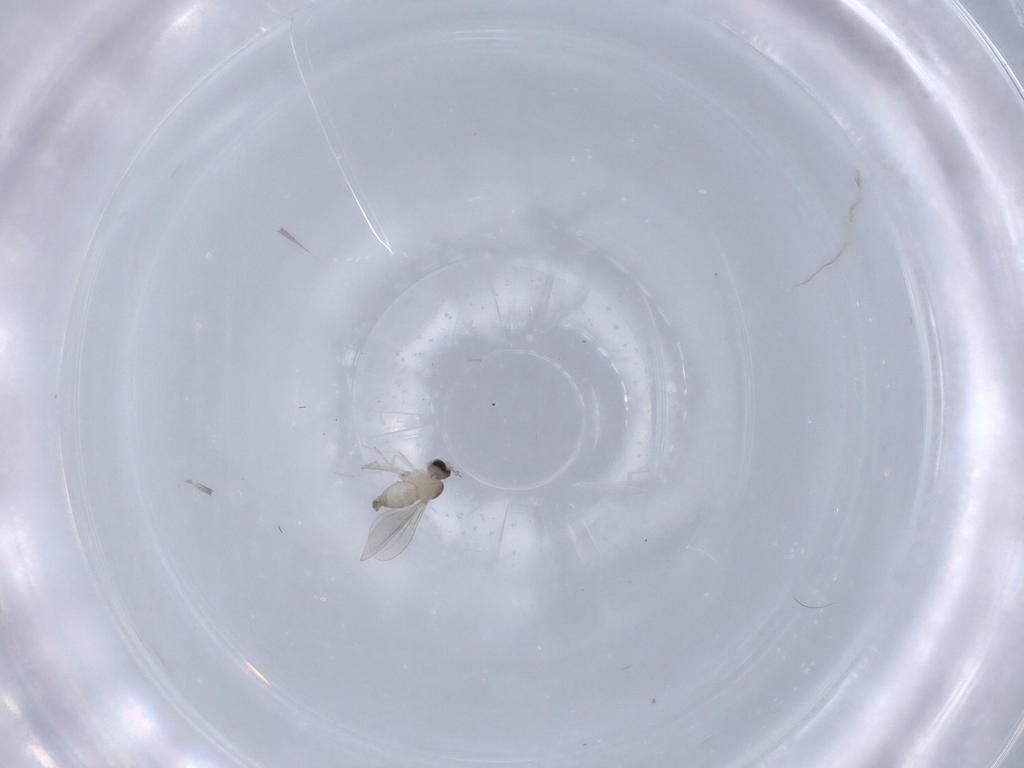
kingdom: Animalia
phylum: Arthropoda
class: Insecta
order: Diptera
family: Cecidomyiidae
